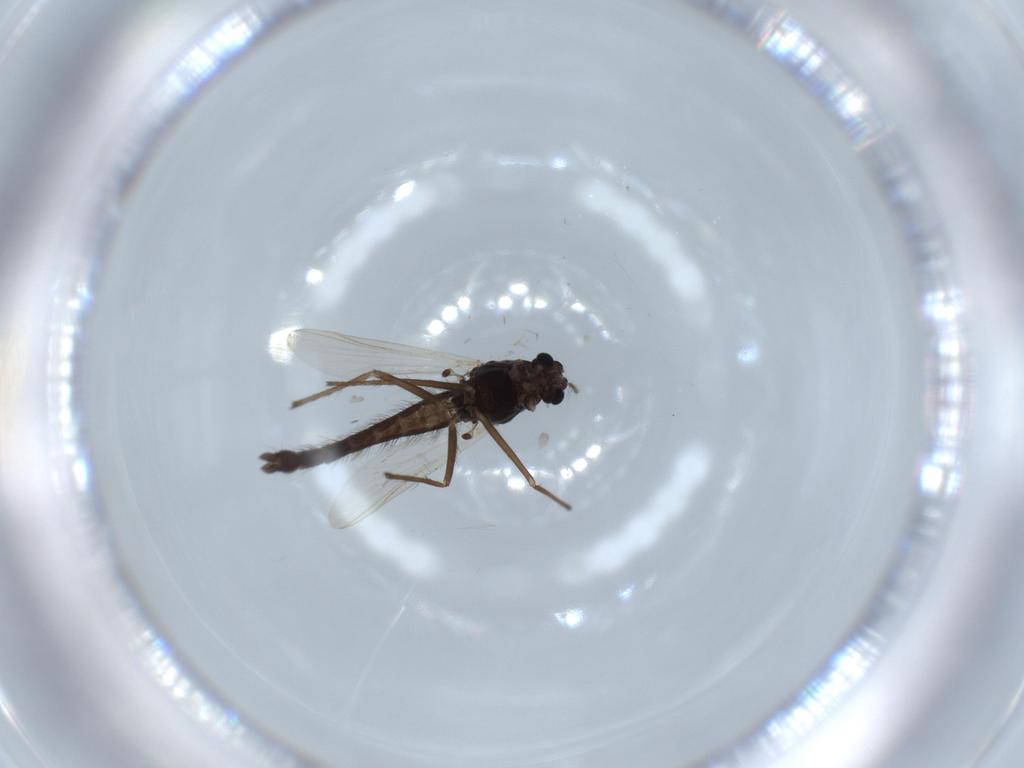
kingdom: Animalia
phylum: Arthropoda
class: Insecta
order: Diptera
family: Chironomidae
